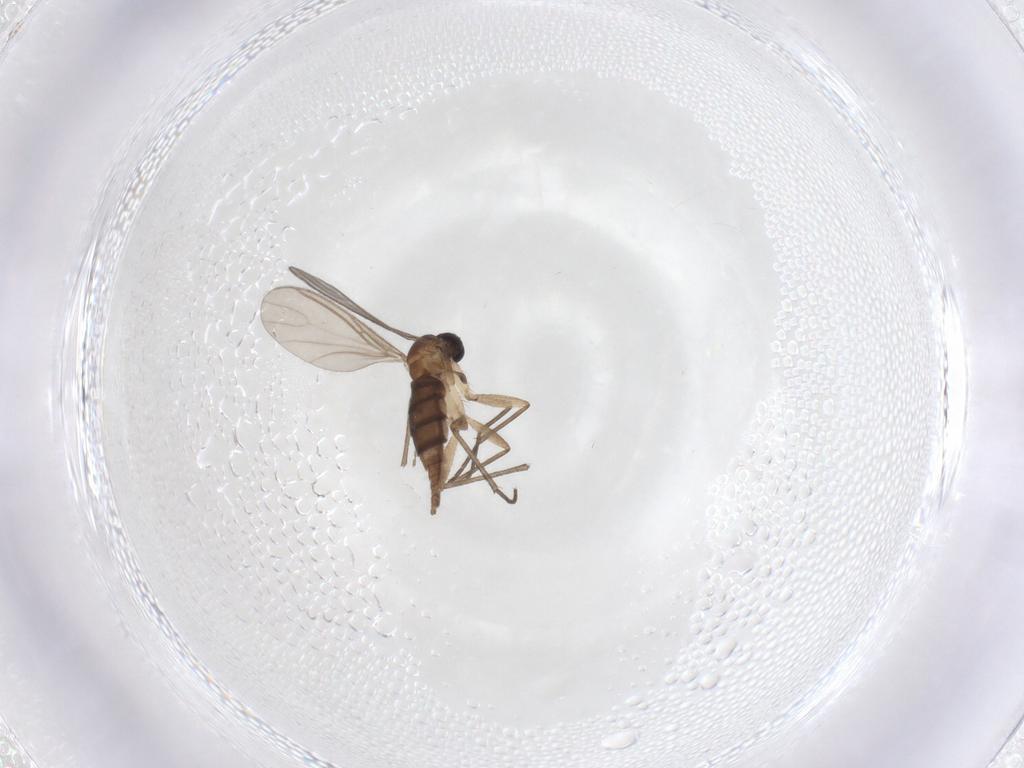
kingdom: Animalia
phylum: Arthropoda
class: Insecta
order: Diptera
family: Sciaridae
